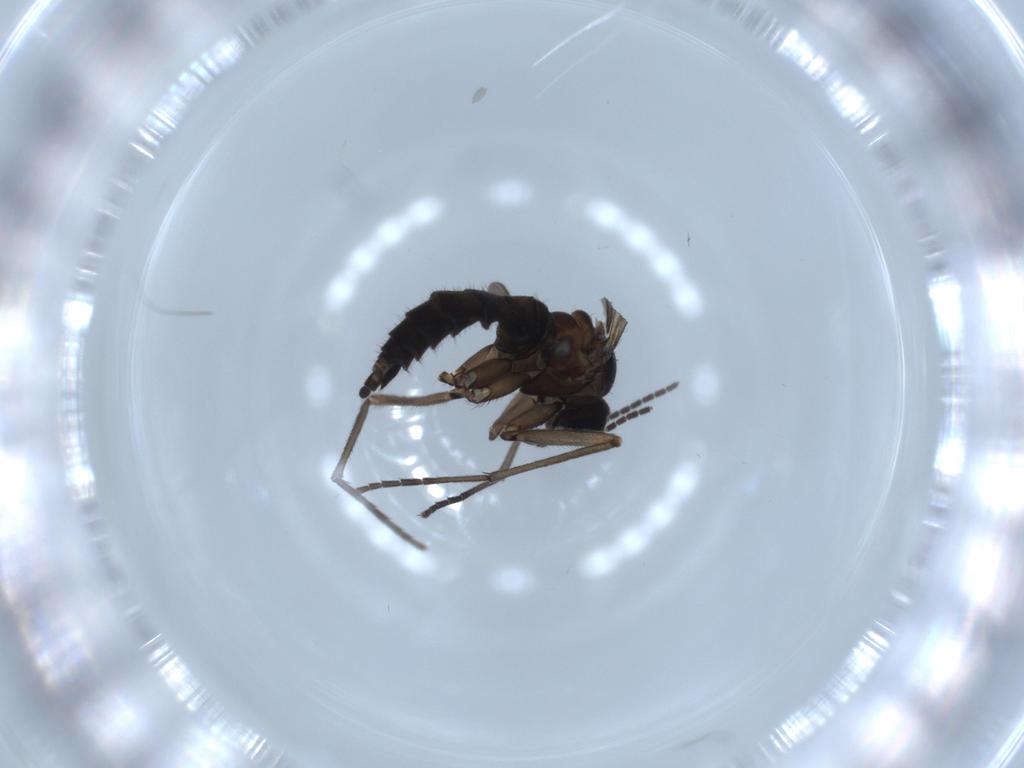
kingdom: Animalia
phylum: Arthropoda
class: Insecta
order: Diptera
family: Sciaridae
